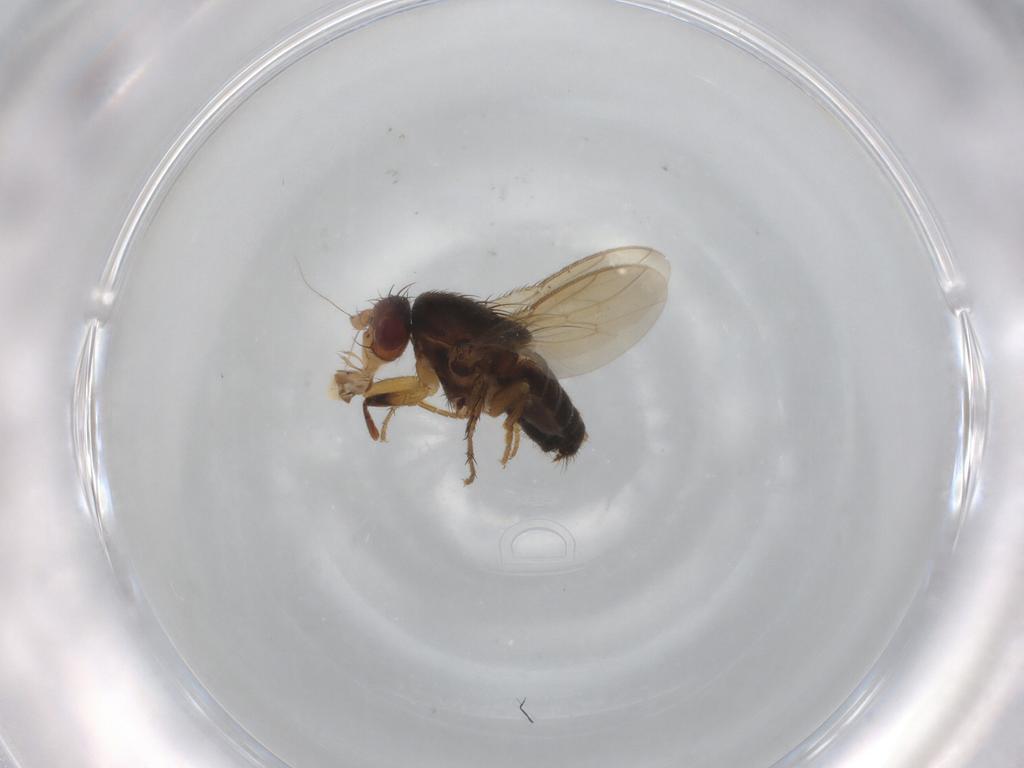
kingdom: Animalia
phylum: Arthropoda
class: Insecta
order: Diptera
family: Sphaeroceridae
